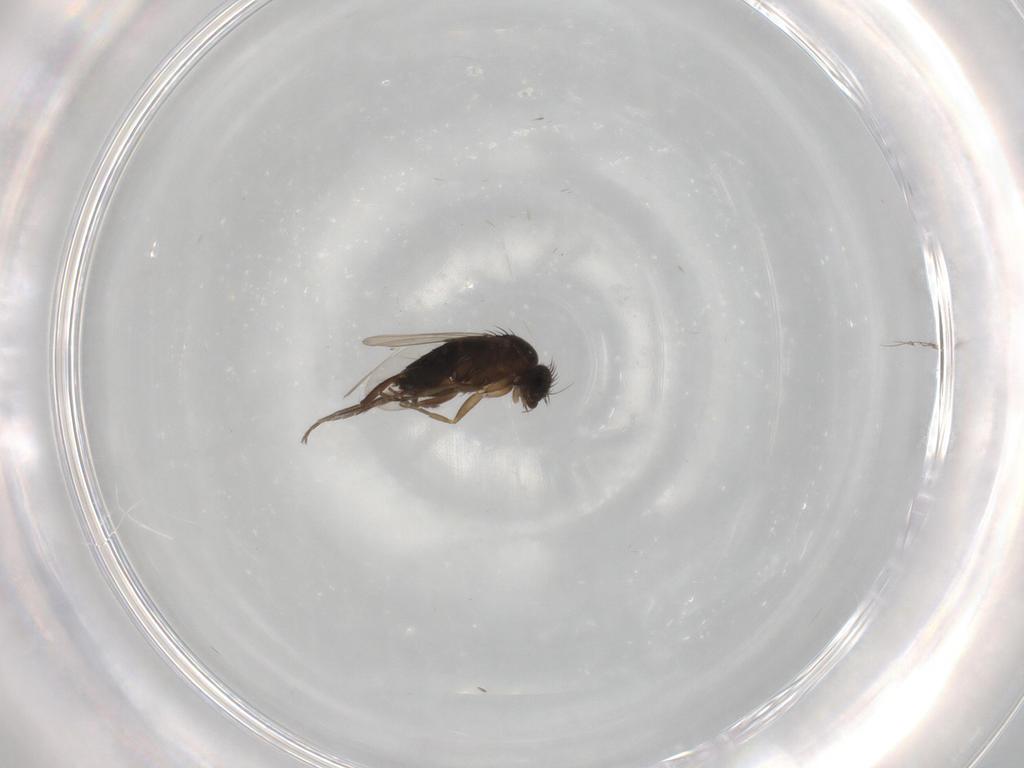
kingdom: Animalia
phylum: Arthropoda
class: Insecta
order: Diptera
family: Phoridae
